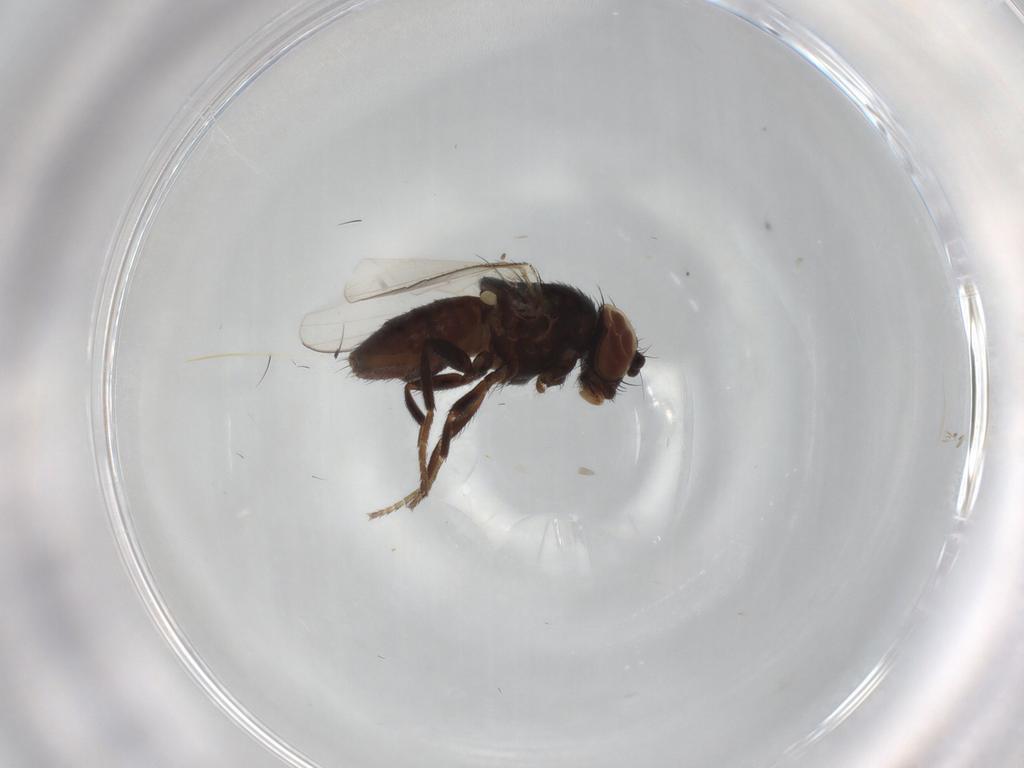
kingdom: Animalia
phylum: Arthropoda
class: Insecta
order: Diptera
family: Milichiidae
